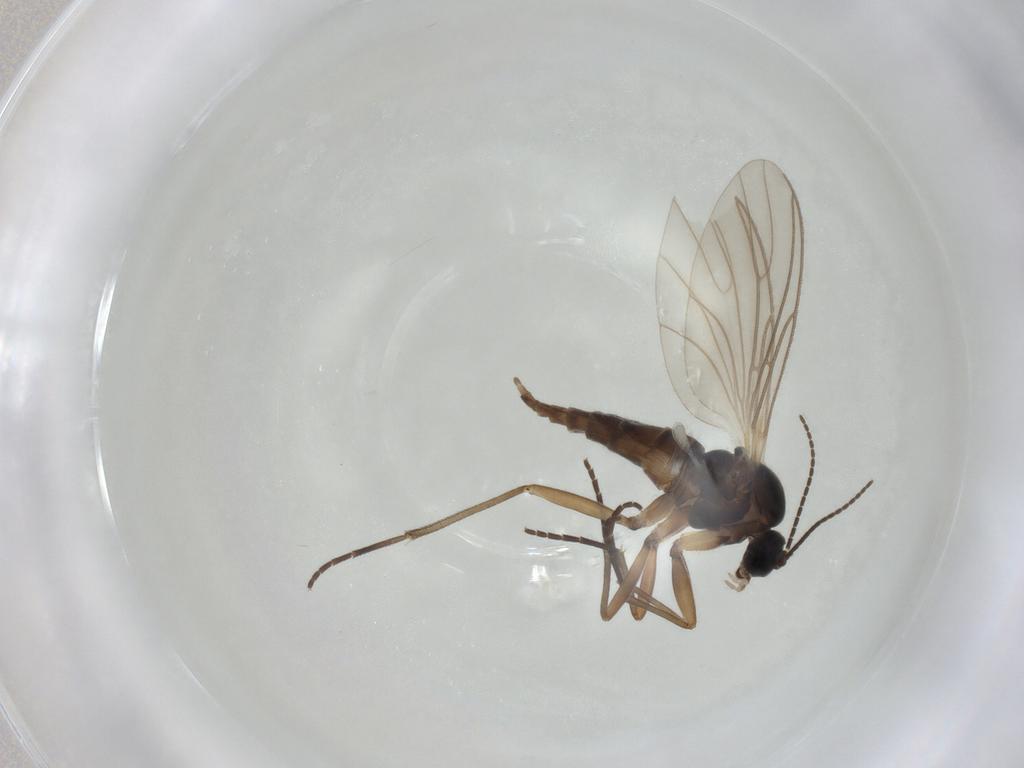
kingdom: Animalia
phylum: Arthropoda
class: Insecta
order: Diptera
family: Sciaridae
